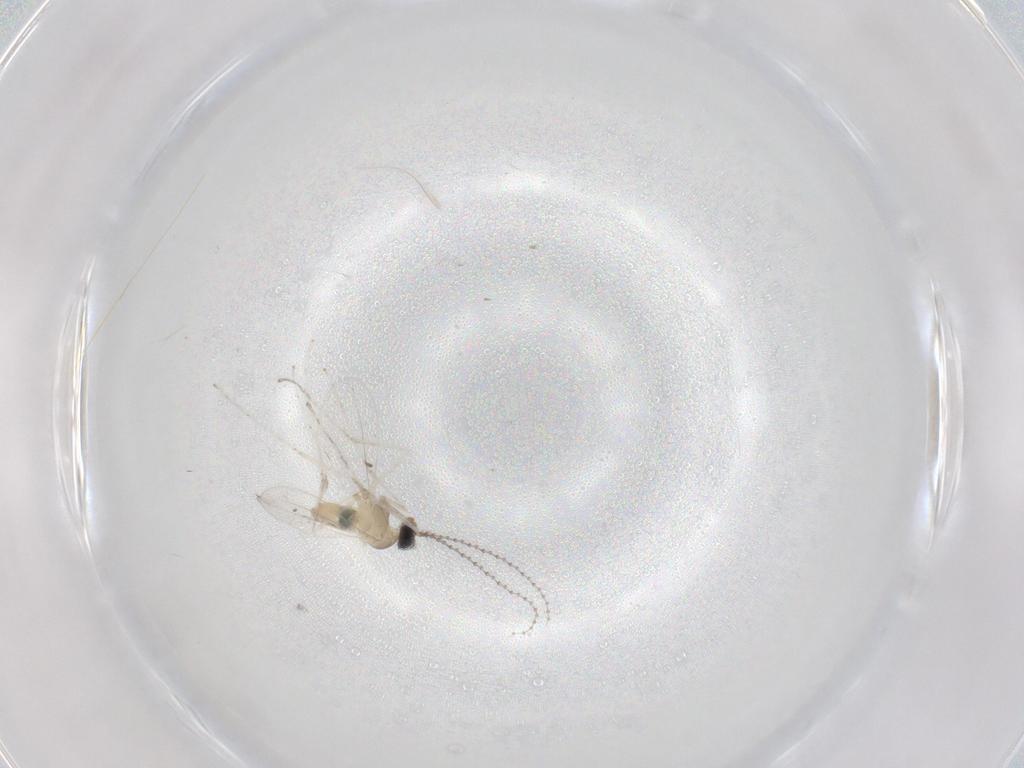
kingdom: Animalia
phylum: Arthropoda
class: Insecta
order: Diptera
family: Cecidomyiidae
